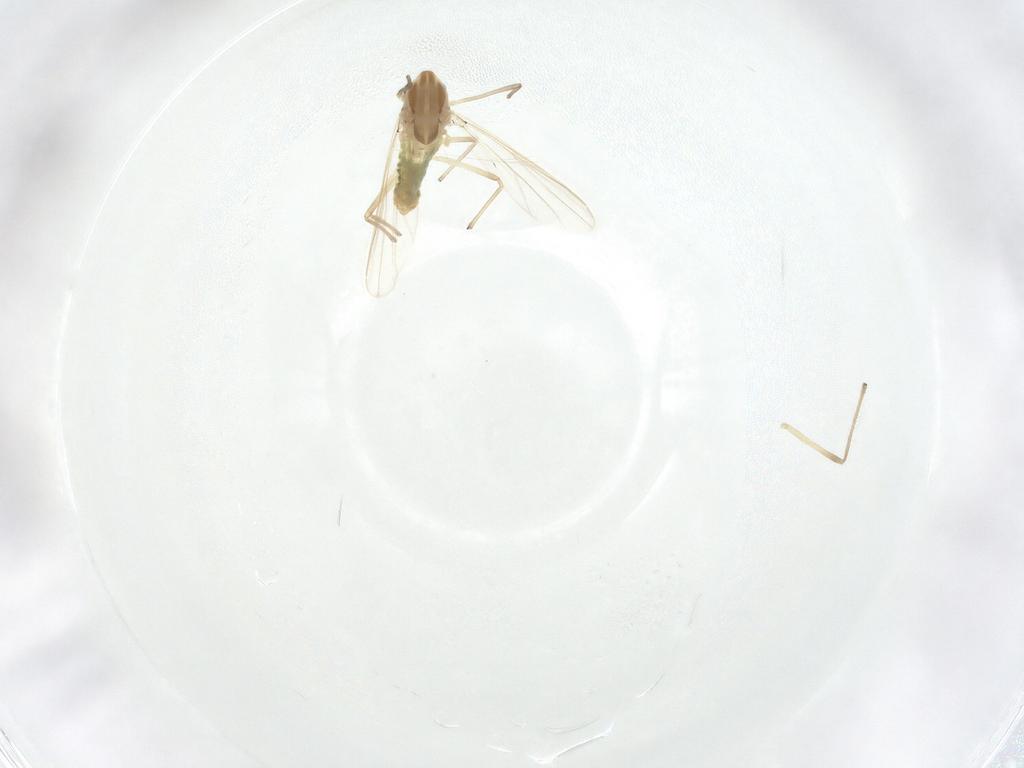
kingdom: Animalia
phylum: Arthropoda
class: Insecta
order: Diptera
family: Chironomidae
